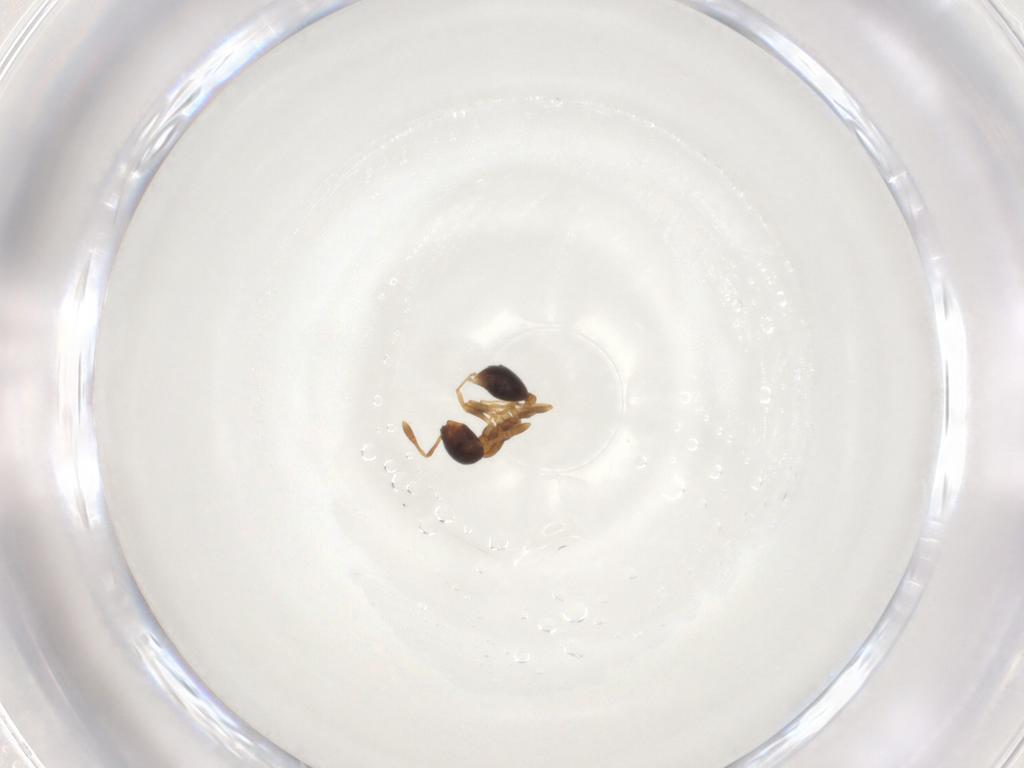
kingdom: Animalia
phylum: Arthropoda
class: Insecta
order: Hymenoptera
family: Formicidae
